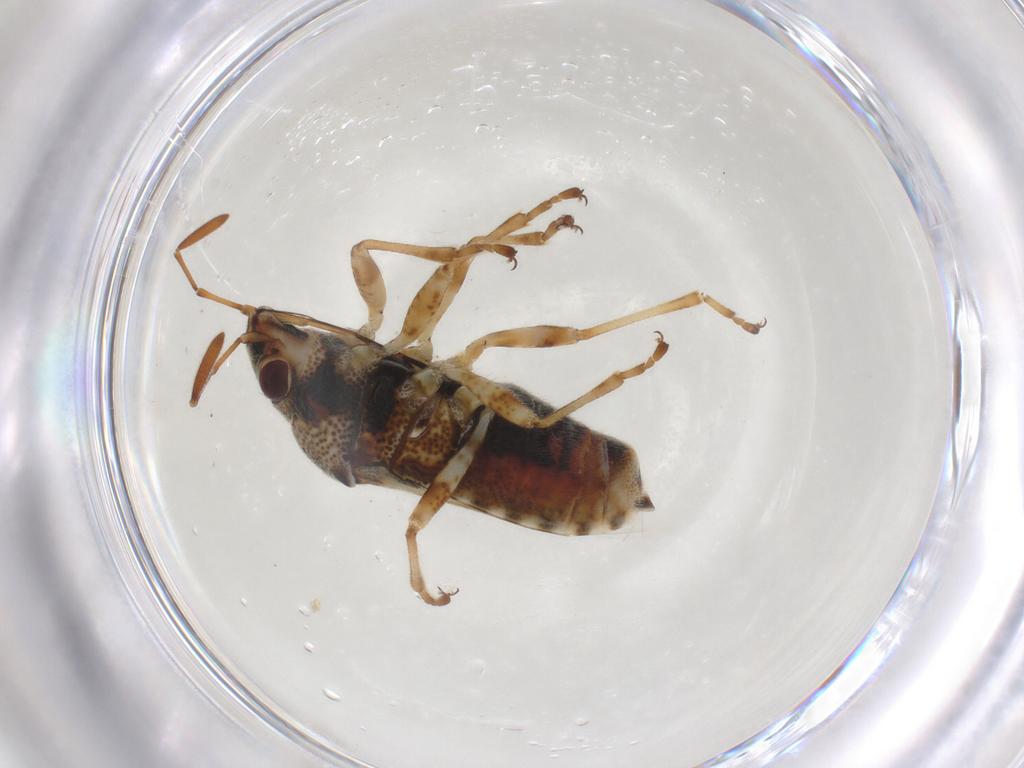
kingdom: Animalia
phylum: Arthropoda
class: Insecta
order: Hemiptera
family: Lygaeidae
